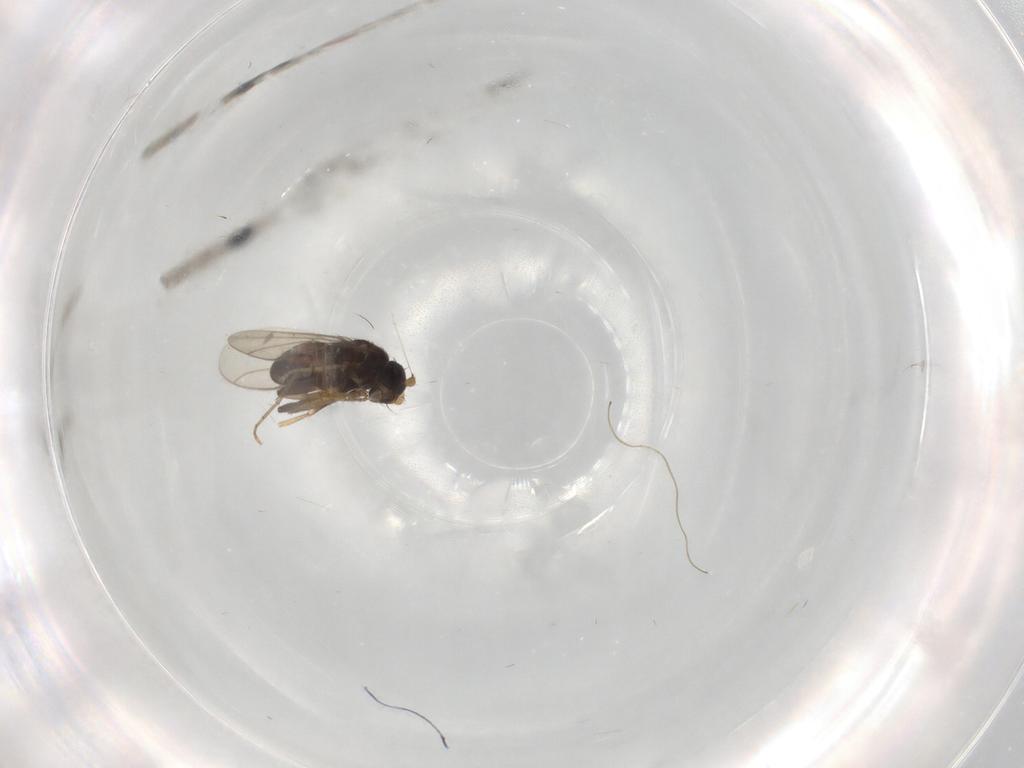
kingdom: Animalia
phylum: Arthropoda
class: Insecta
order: Diptera
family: Sphaeroceridae
